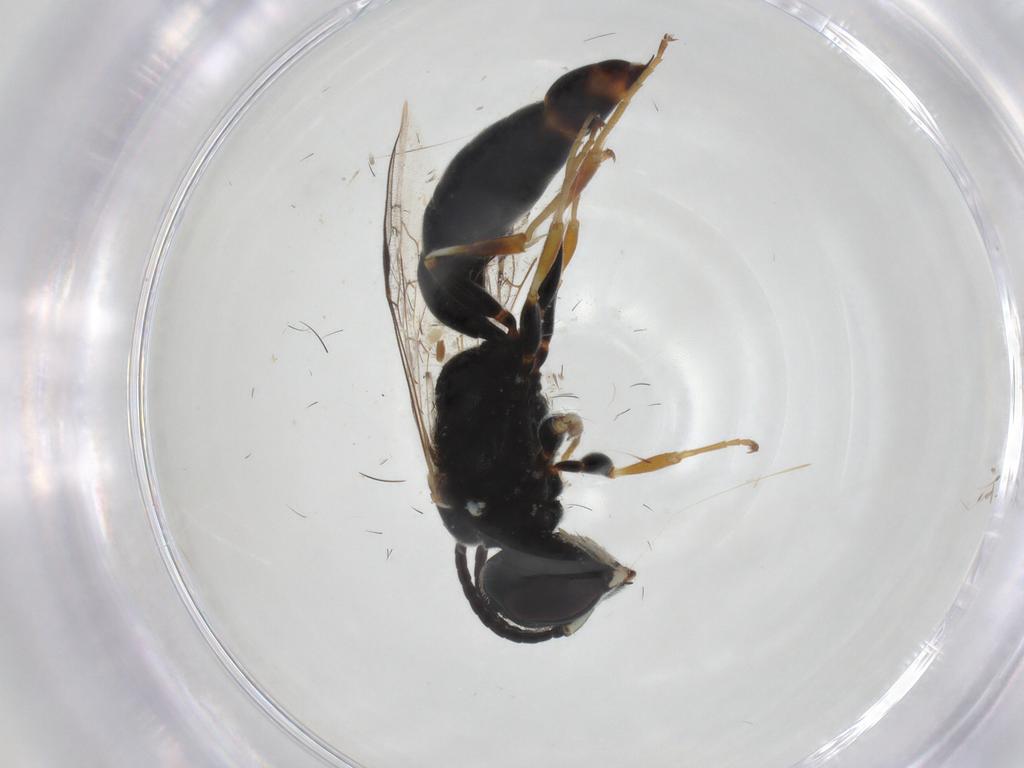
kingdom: Animalia
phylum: Arthropoda
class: Insecta
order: Hymenoptera
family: Pemphredonidae
